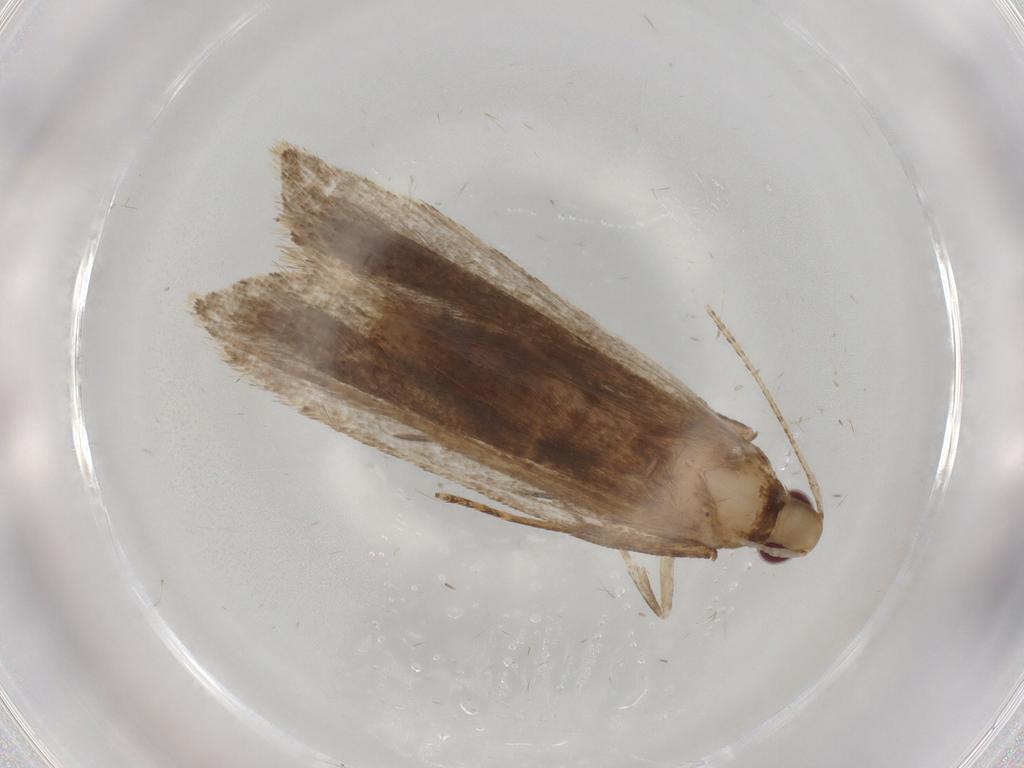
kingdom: Animalia
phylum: Arthropoda
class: Insecta
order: Lepidoptera
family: Gelechiidae
